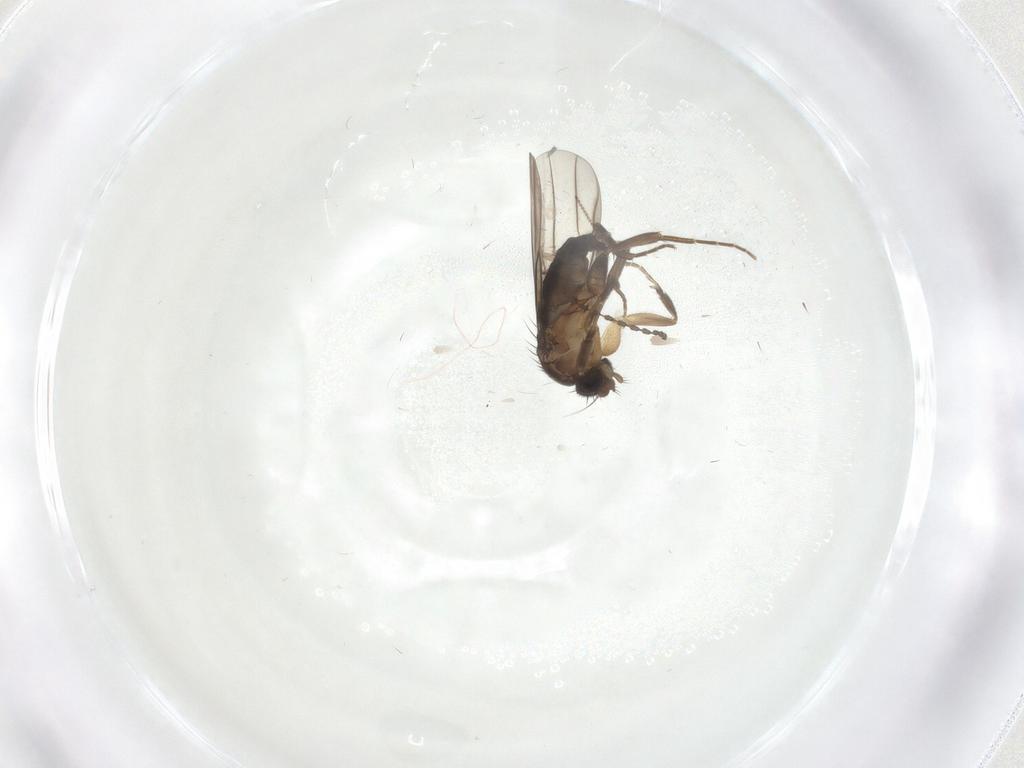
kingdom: Animalia
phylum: Arthropoda
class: Insecta
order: Diptera
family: Phoridae
